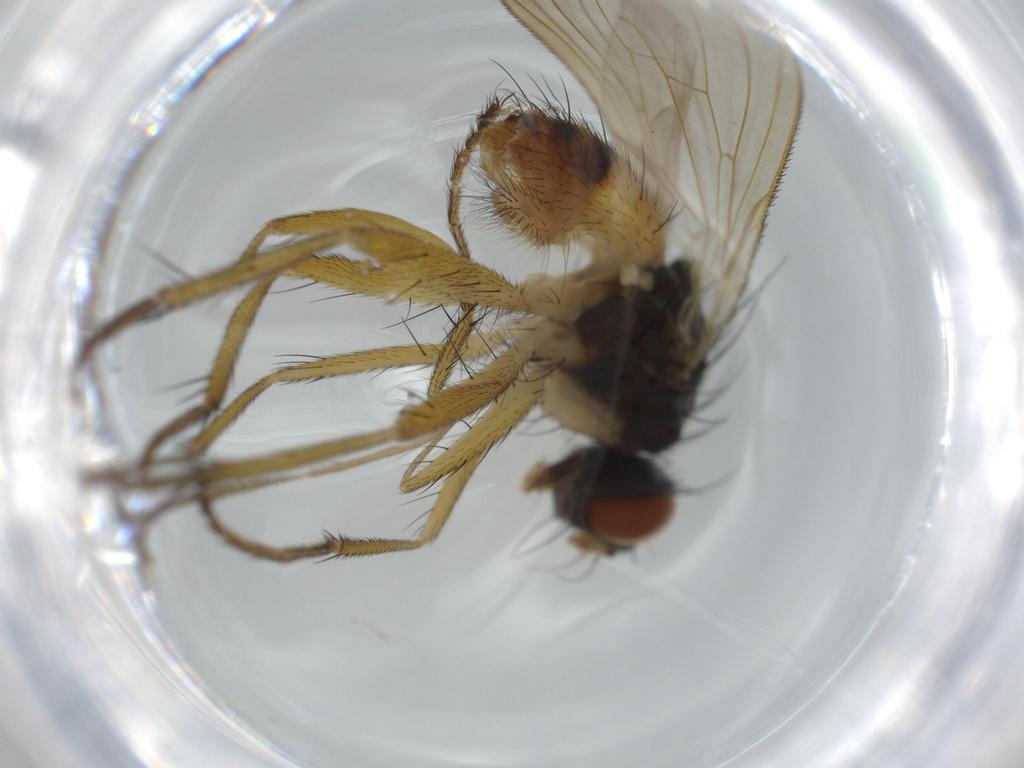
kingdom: Animalia
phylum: Arthropoda
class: Insecta
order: Diptera
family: Muscidae
